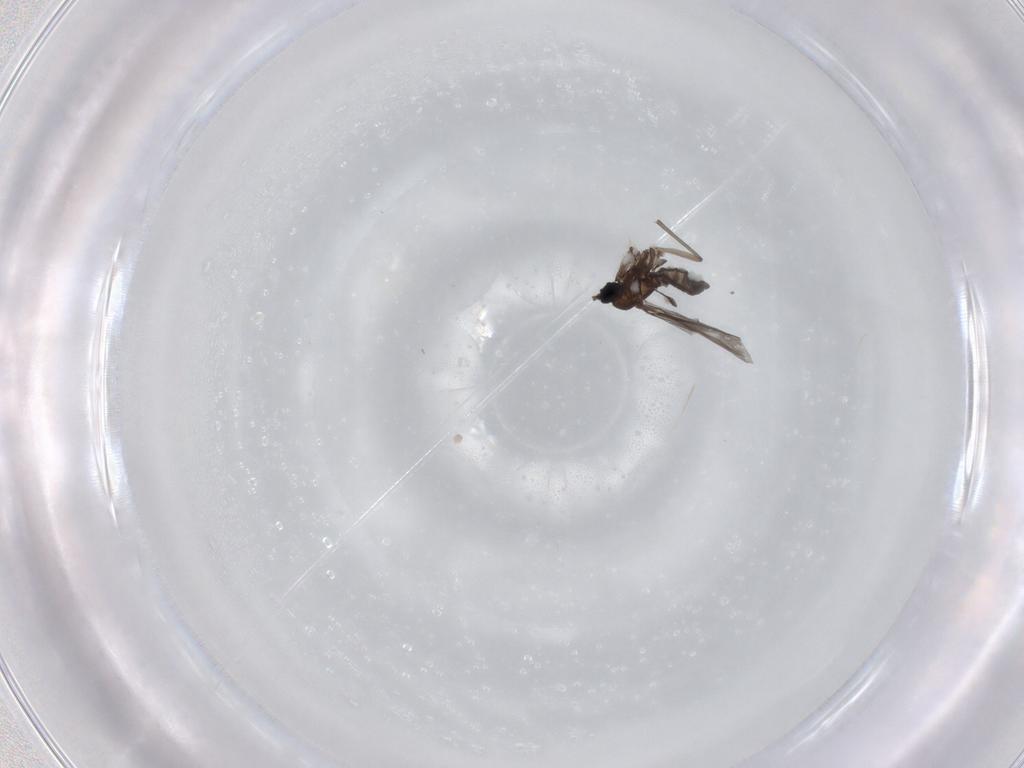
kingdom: Animalia
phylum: Arthropoda
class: Insecta
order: Diptera
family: Sciaridae
